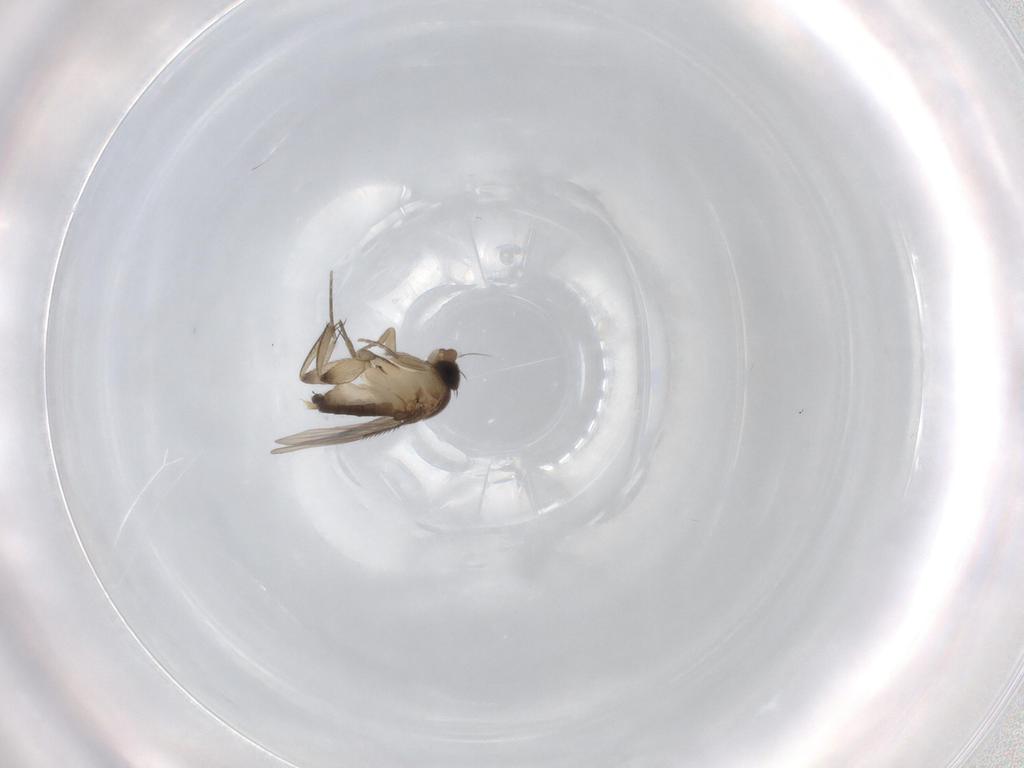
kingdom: Animalia
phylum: Arthropoda
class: Insecta
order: Diptera
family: Phoridae
